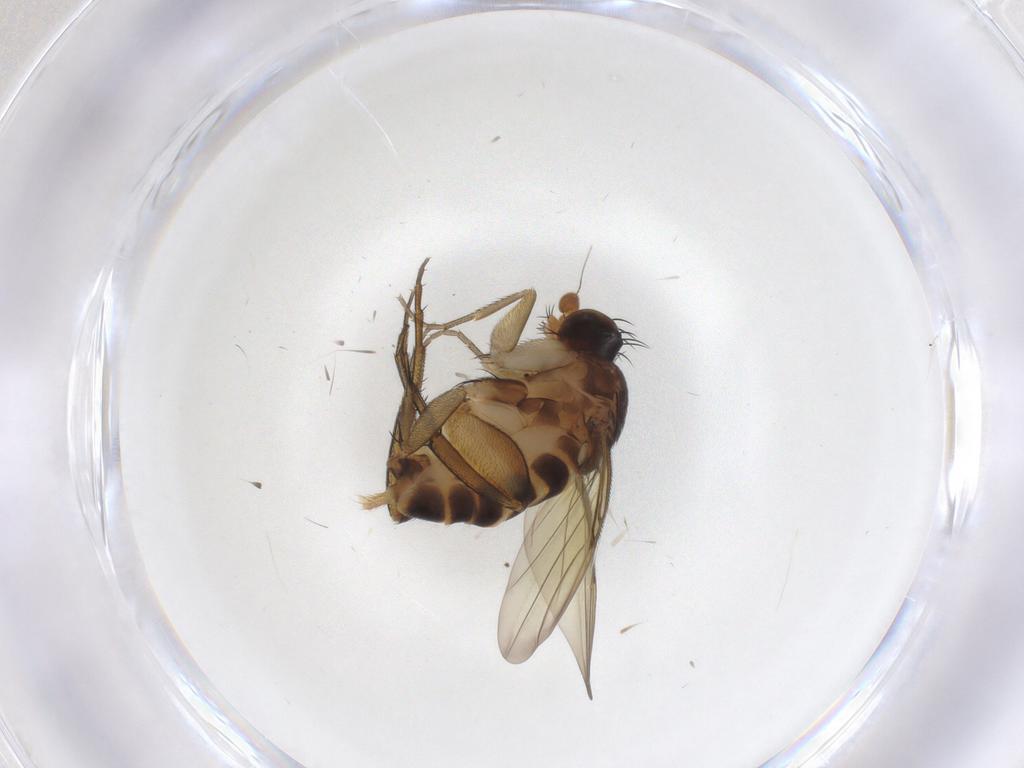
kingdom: Animalia
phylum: Arthropoda
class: Insecta
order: Diptera
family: Phoridae
